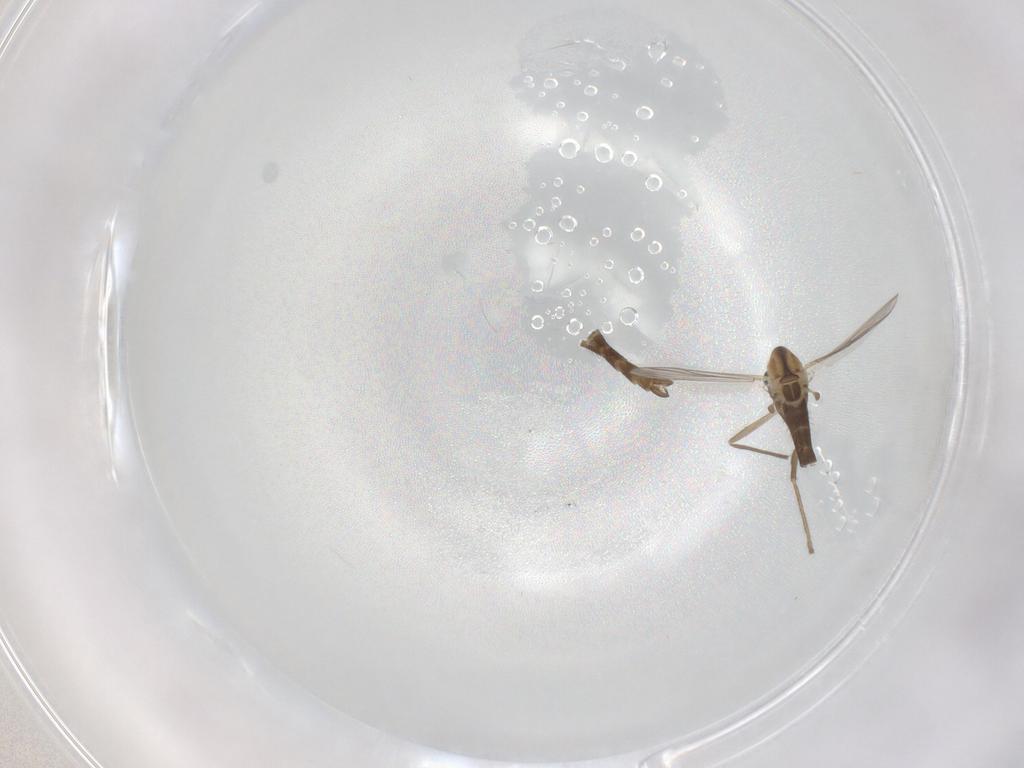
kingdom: Animalia
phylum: Arthropoda
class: Insecta
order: Diptera
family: Chironomidae
